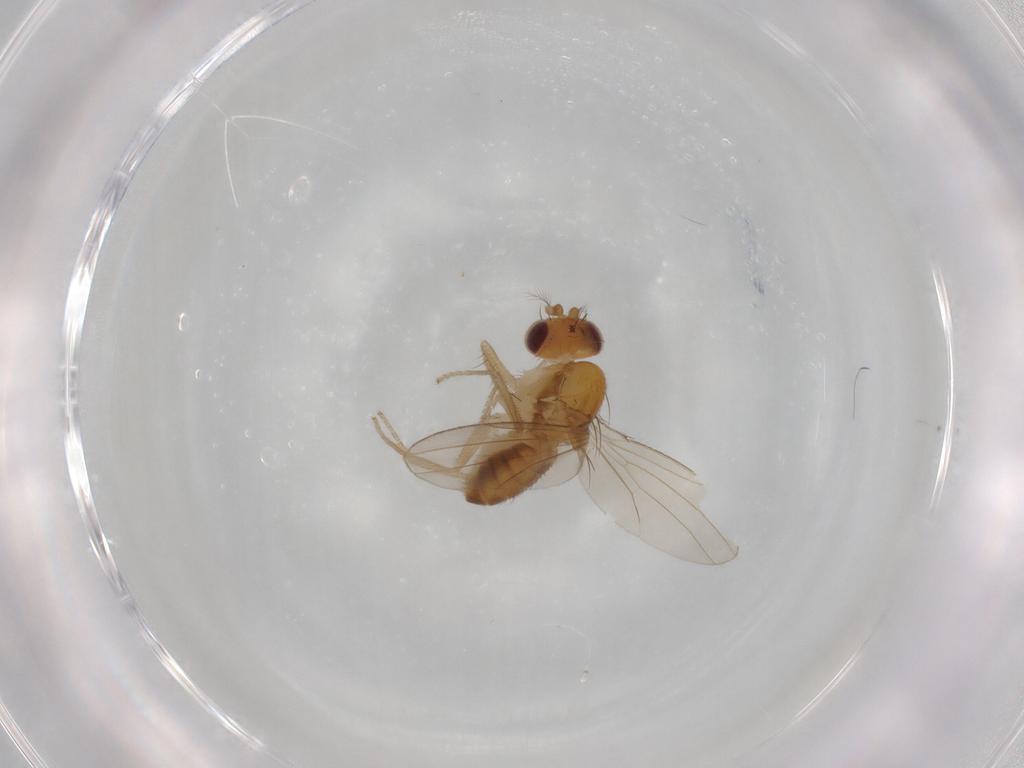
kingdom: Animalia
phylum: Arthropoda
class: Insecta
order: Diptera
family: Drosophilidae
